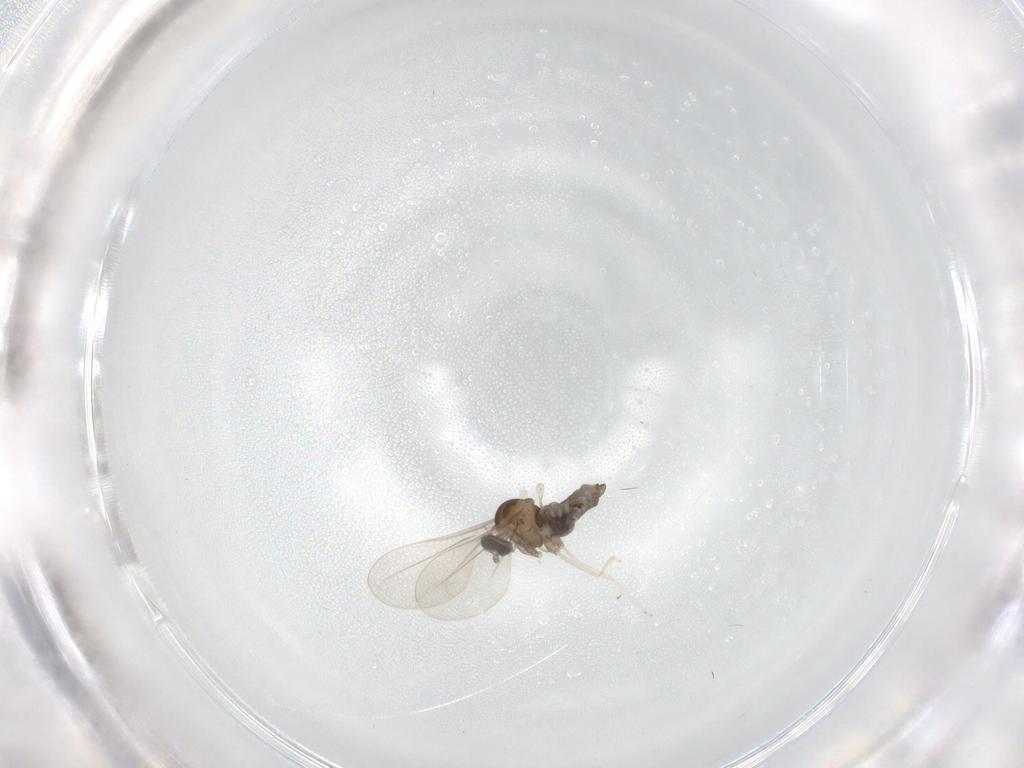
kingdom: Animalia
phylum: Arthropoda
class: Insecta
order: Diptera
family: Cecidomyiidae
